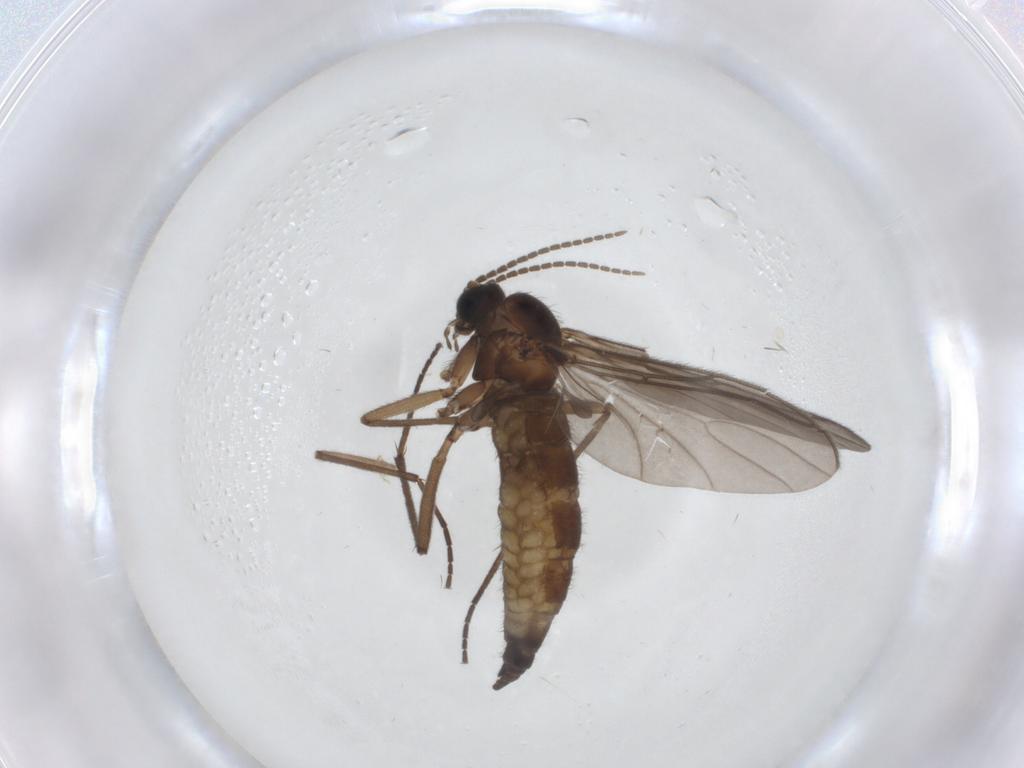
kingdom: Animalia
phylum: Arthropoda
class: Insecta
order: Diptera
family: Sciaridae
